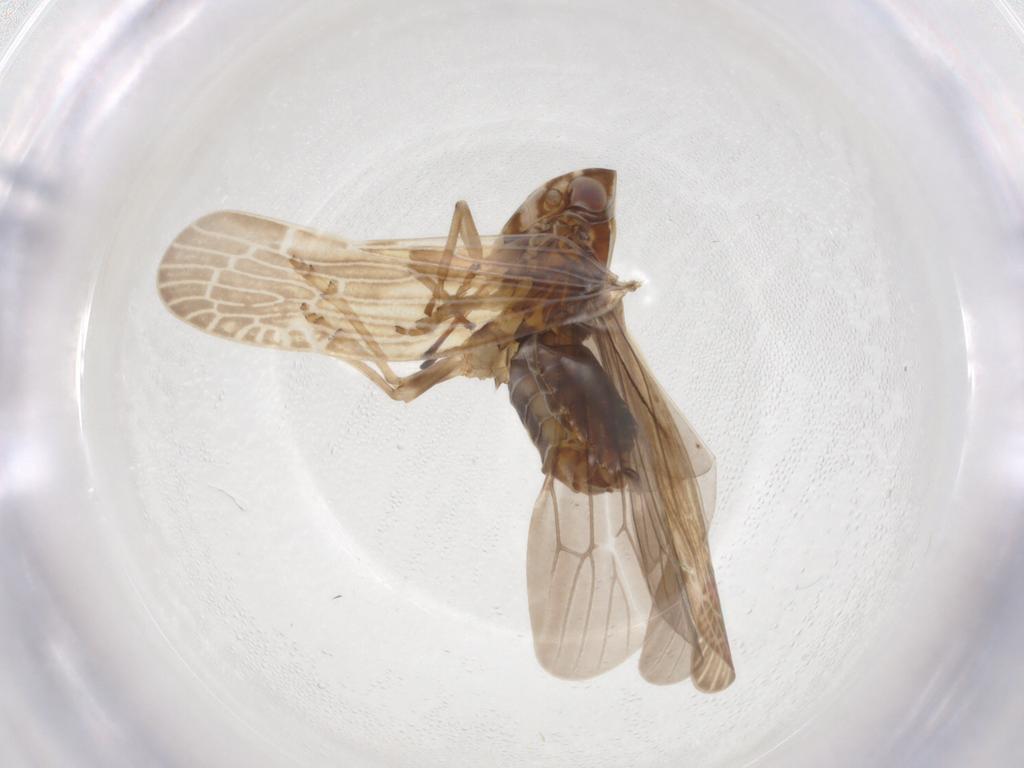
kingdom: Animalia
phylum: Arthropoda
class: Insecta
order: Hemiptera
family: Achilidae
